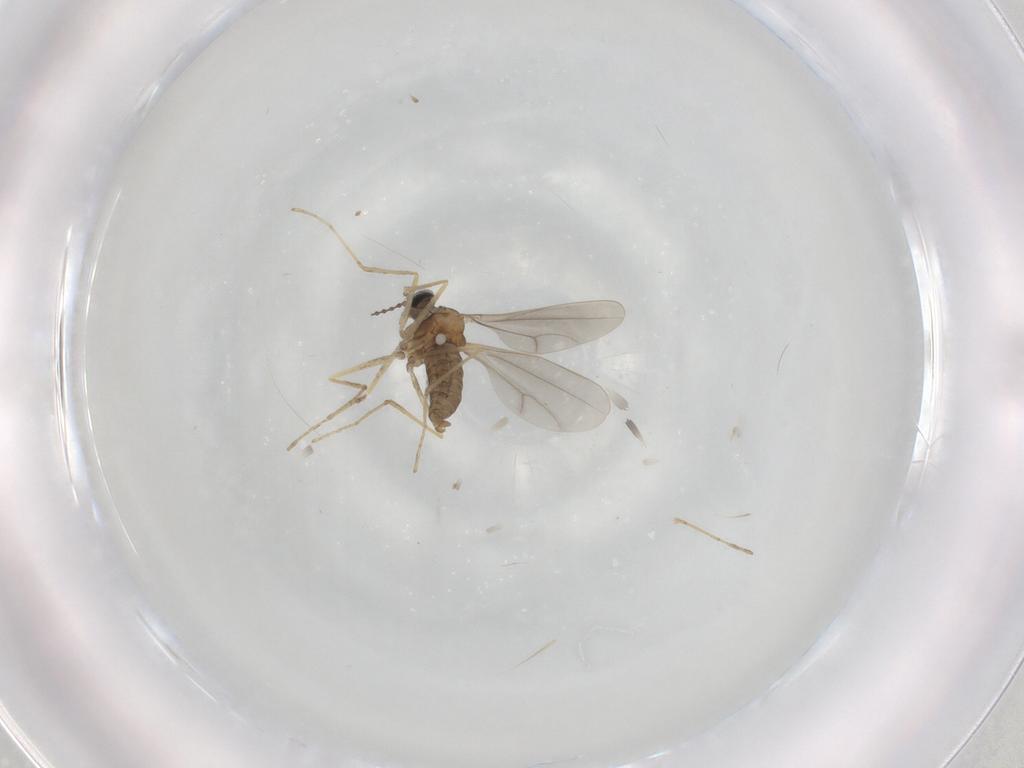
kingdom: Animalia
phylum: Arthropoda
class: Insecta
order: Diptera
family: Cecidomyiidae
